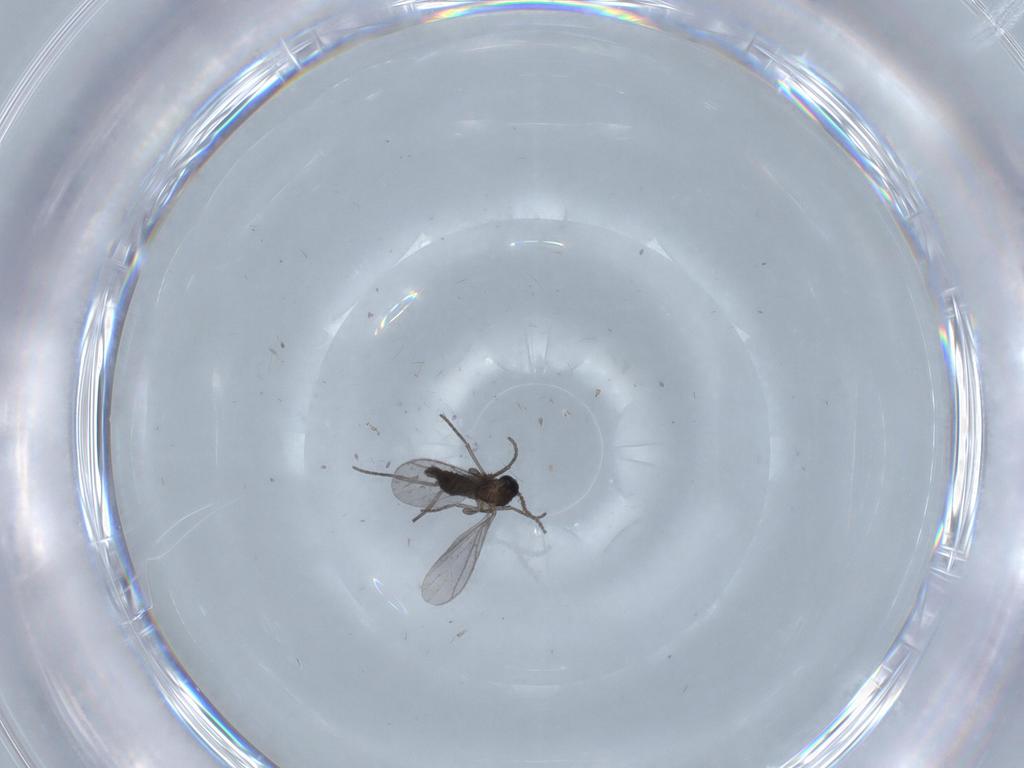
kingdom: Animalia
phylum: Arthropoda
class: Insecta
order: Diptera
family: Cecidomyiidae
